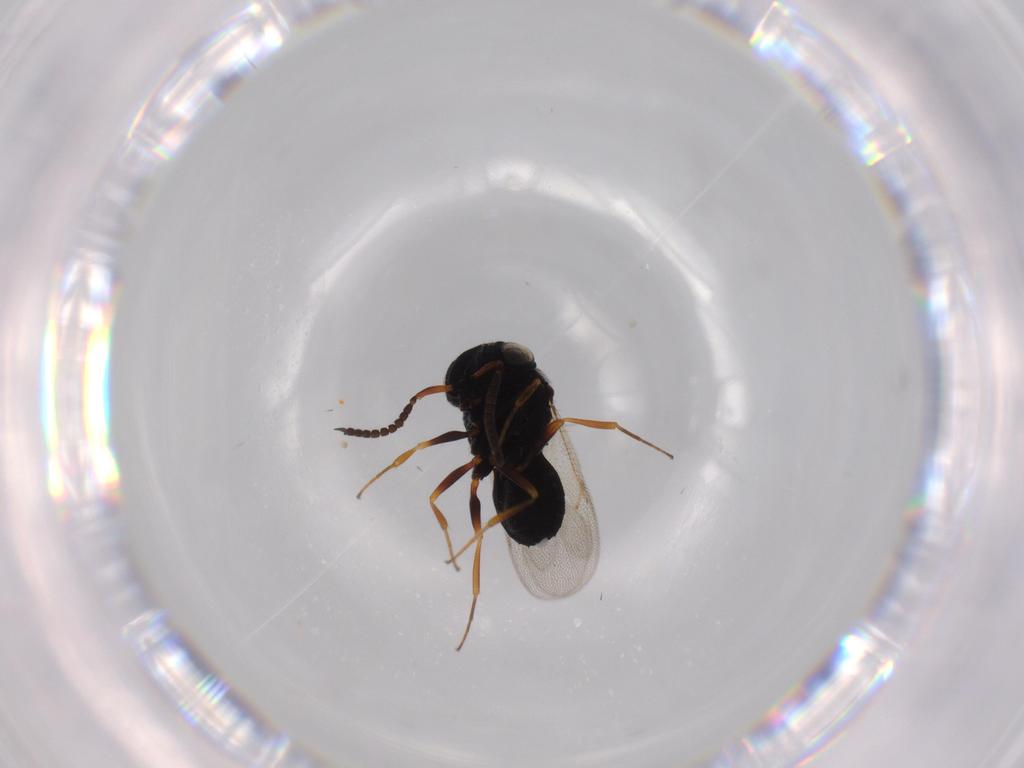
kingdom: Animalia
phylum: Arthropoda
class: Insecta
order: Hymenoptera
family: Scelionidae
